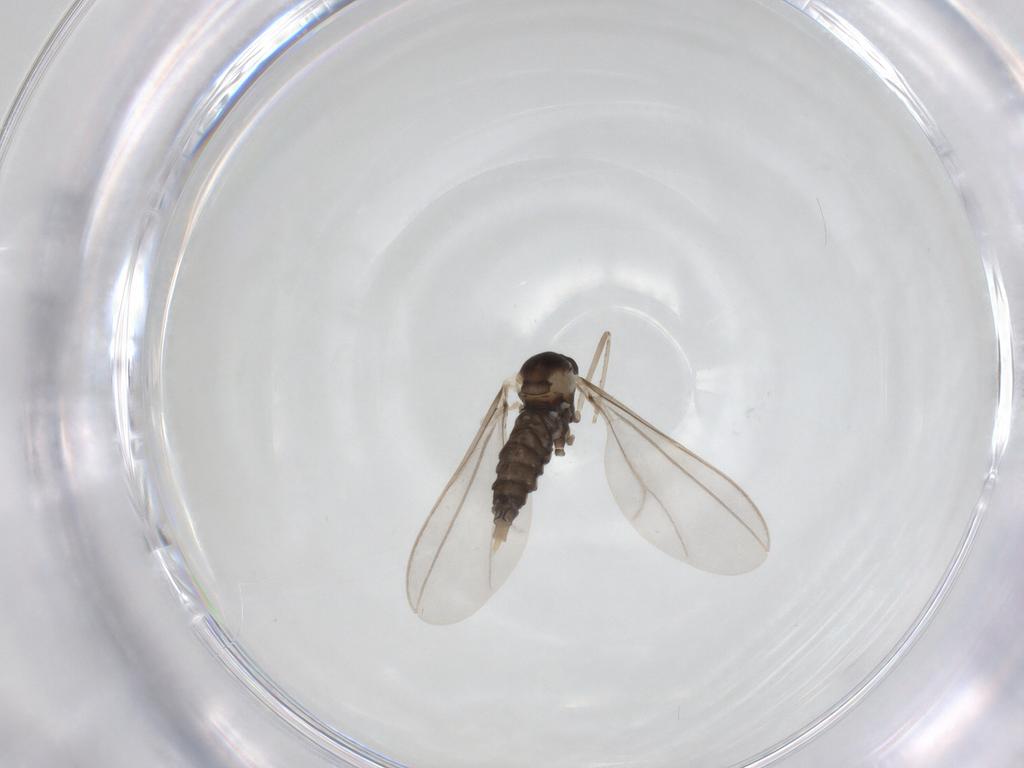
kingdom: Animalia
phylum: Arthropoda
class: Insecta
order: Diptera
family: Cecidomyiidae
